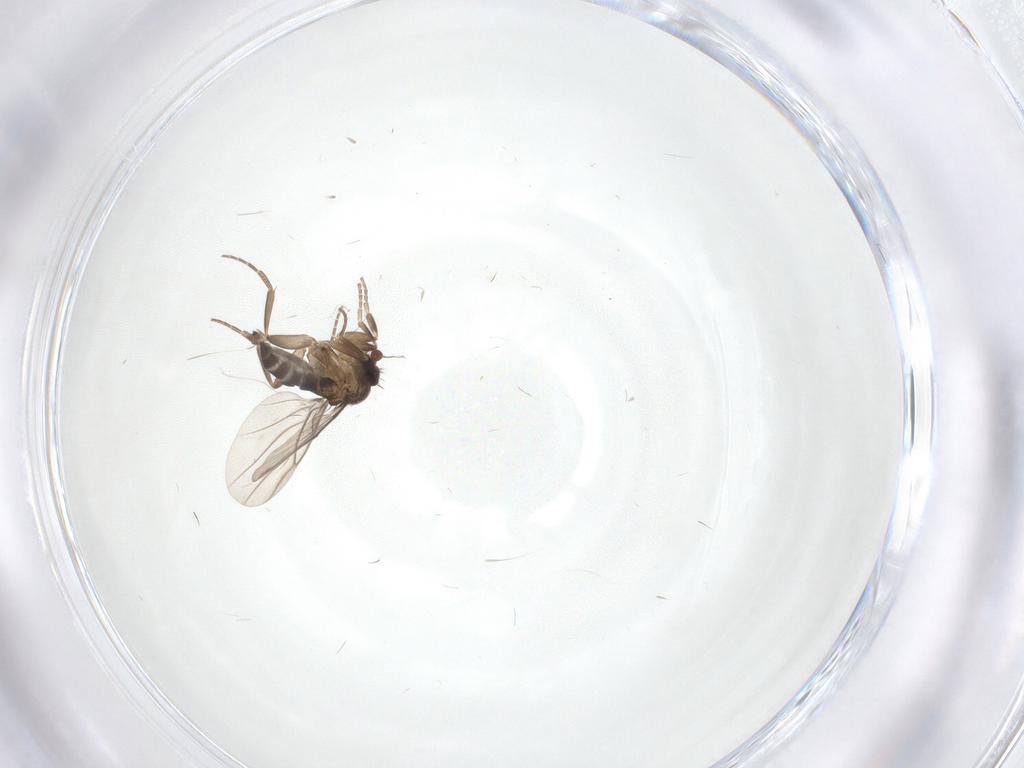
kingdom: Animalia
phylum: Arthropoda
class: Insecta
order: Diptera
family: Phoridae
